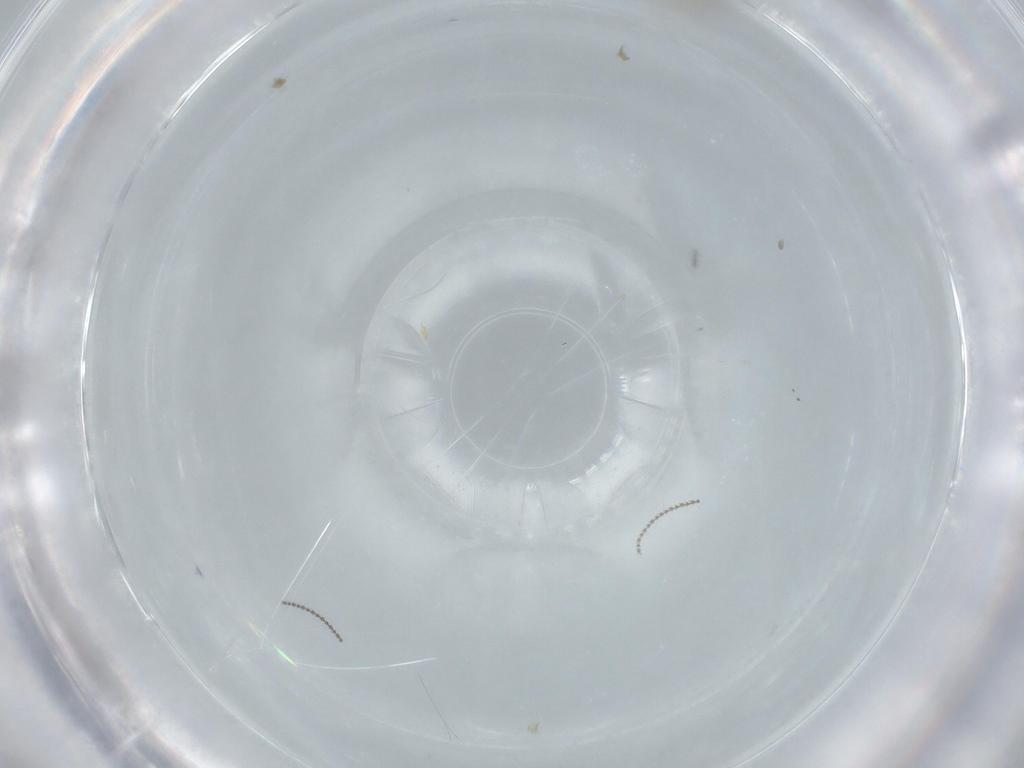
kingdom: Animalia
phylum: Arthropoda
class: Insecta
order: Diptera
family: Cecidomyiidae
